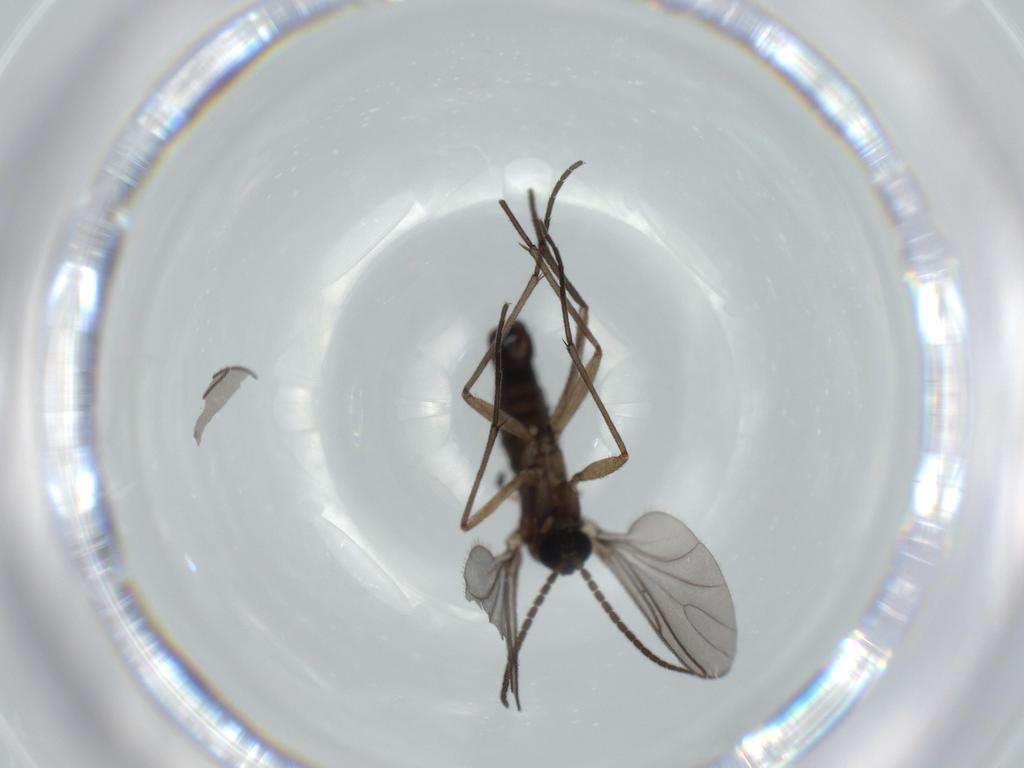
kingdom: Animalia
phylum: Arthropoda
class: Insecta
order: Diptera
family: Sciaridae
